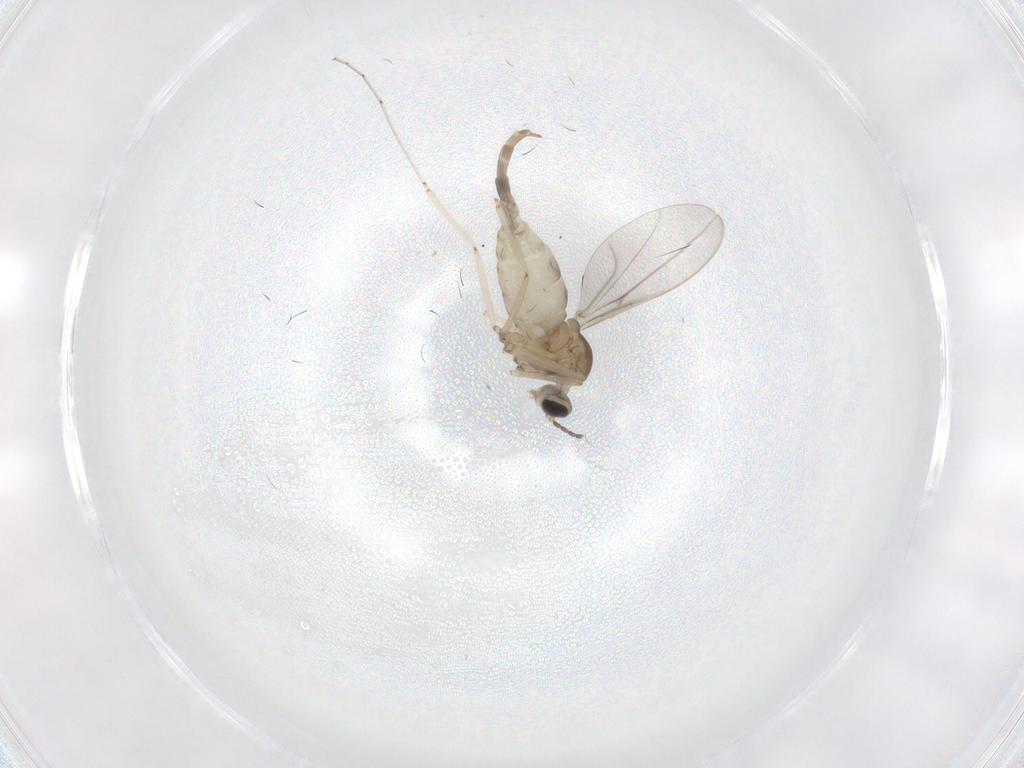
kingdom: Animalia
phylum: Arthropoda
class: Insecta
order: Diptera
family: Cecidomyiidae
